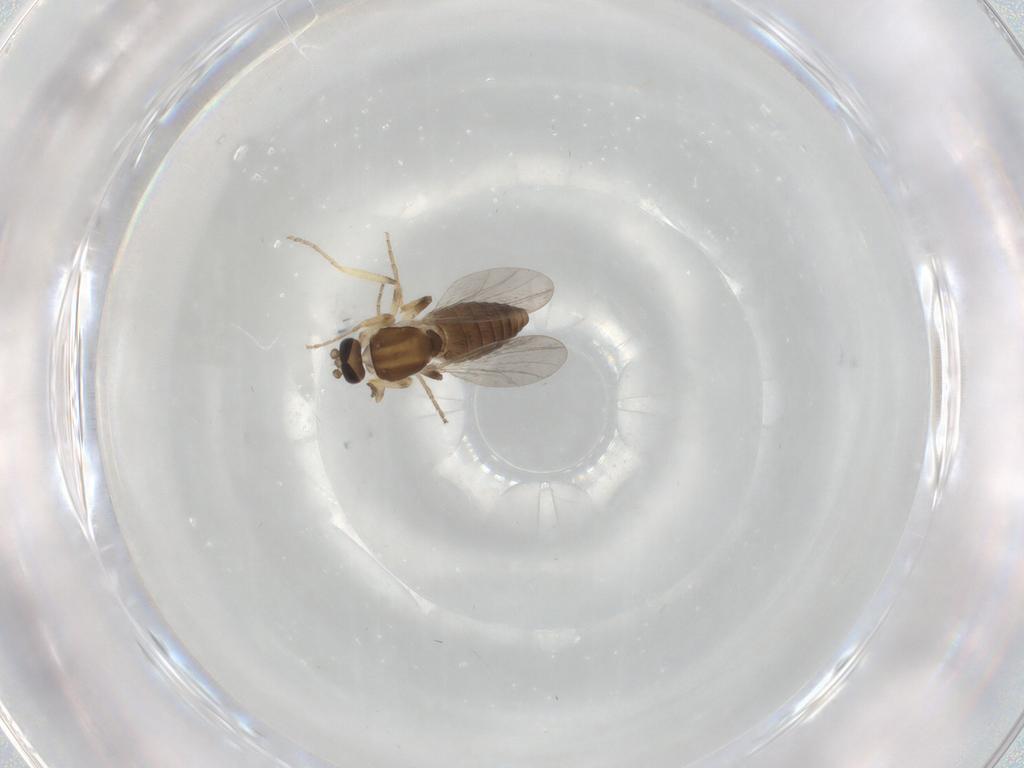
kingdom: Animalia
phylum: Arthropoda
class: Insecta
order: Diptera
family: Ceratopogonidae
